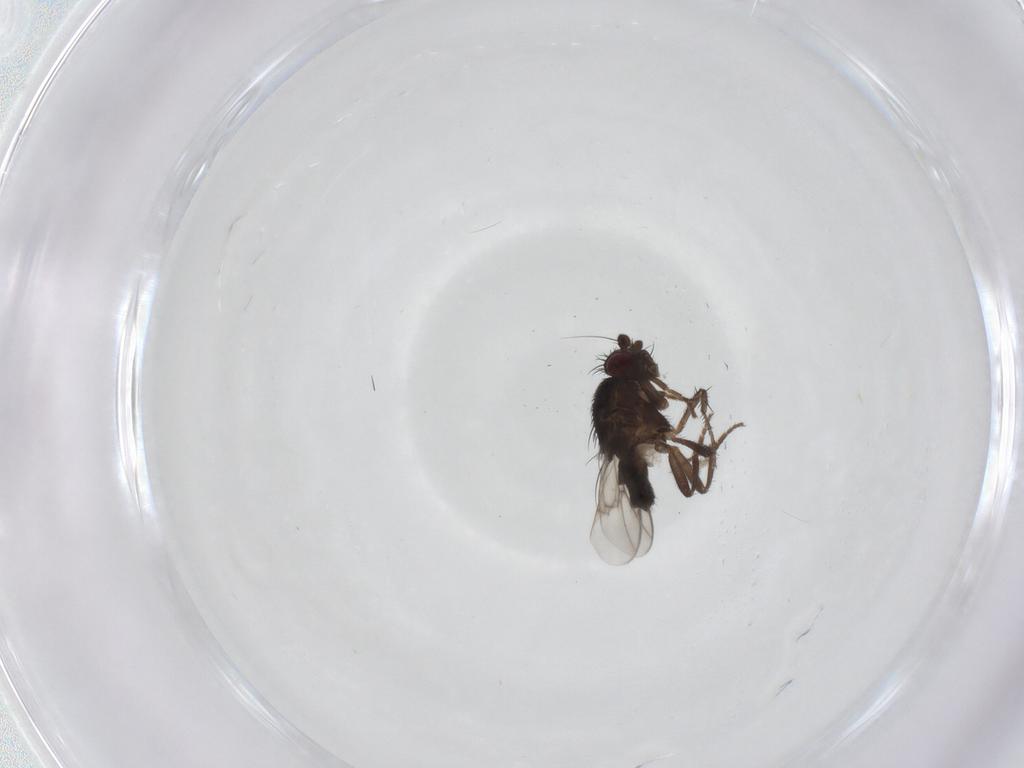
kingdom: Animalia
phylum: Arthropoda
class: Insecta
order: Diptera
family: Sphaeroceridae
